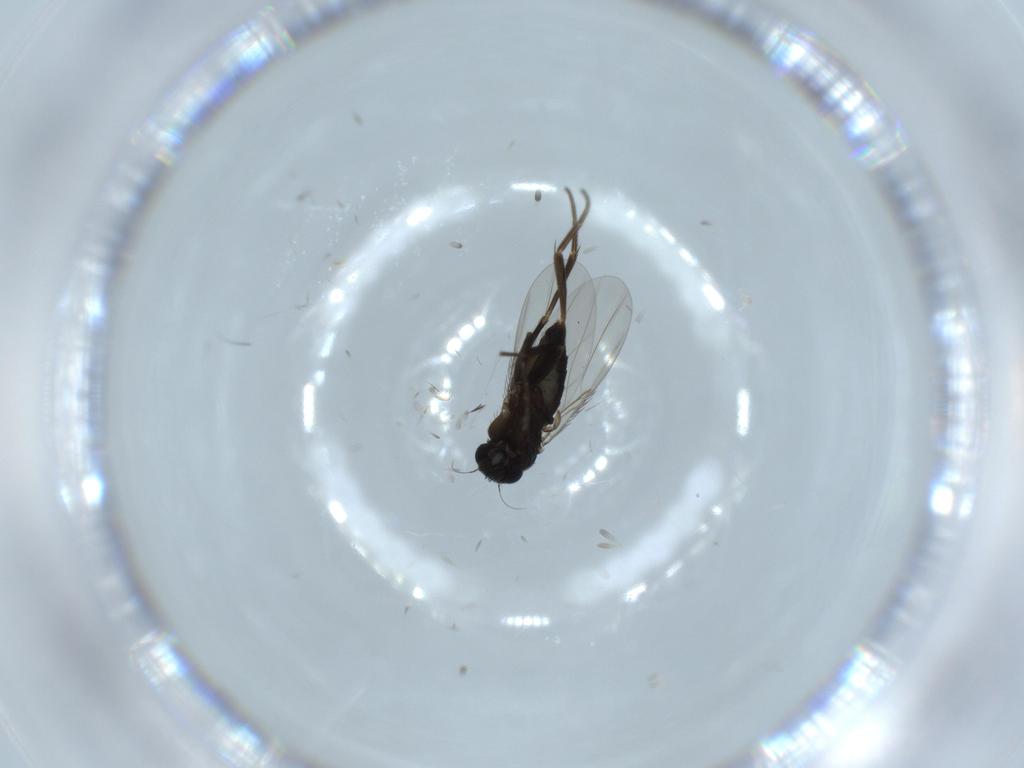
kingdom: Animalia
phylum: Arthropoda
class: Insecta
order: Diptera
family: Phoridae
